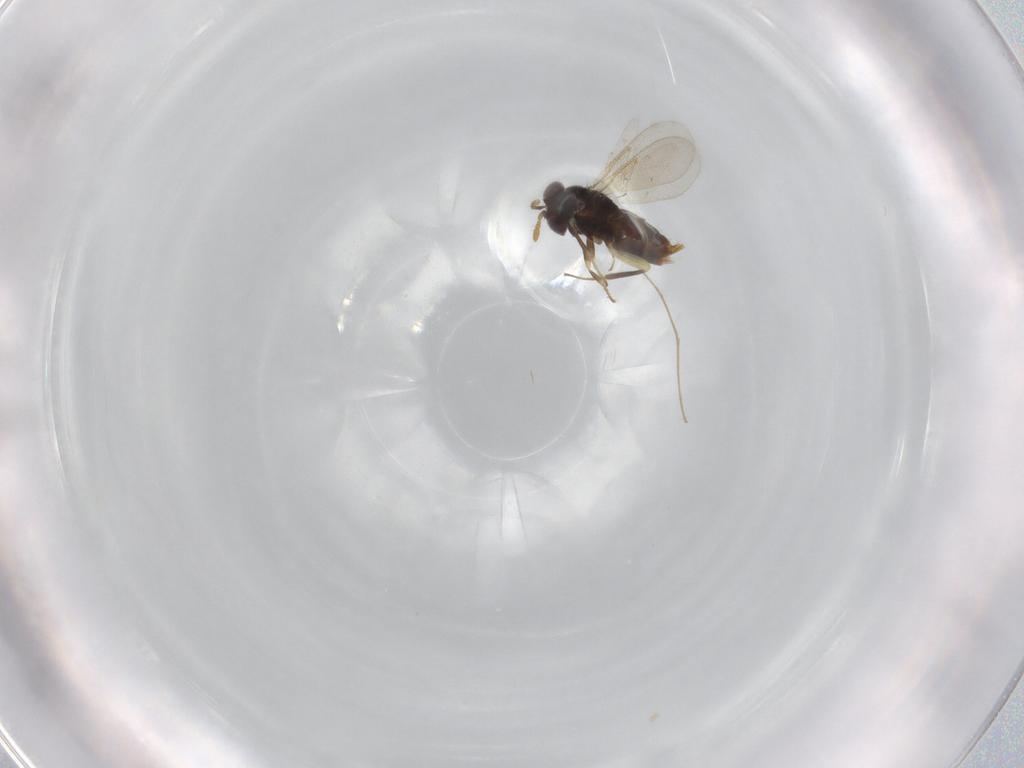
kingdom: Animalia
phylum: Arthropoda
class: Insecta
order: Hymenoptera
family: Aphelinidae
